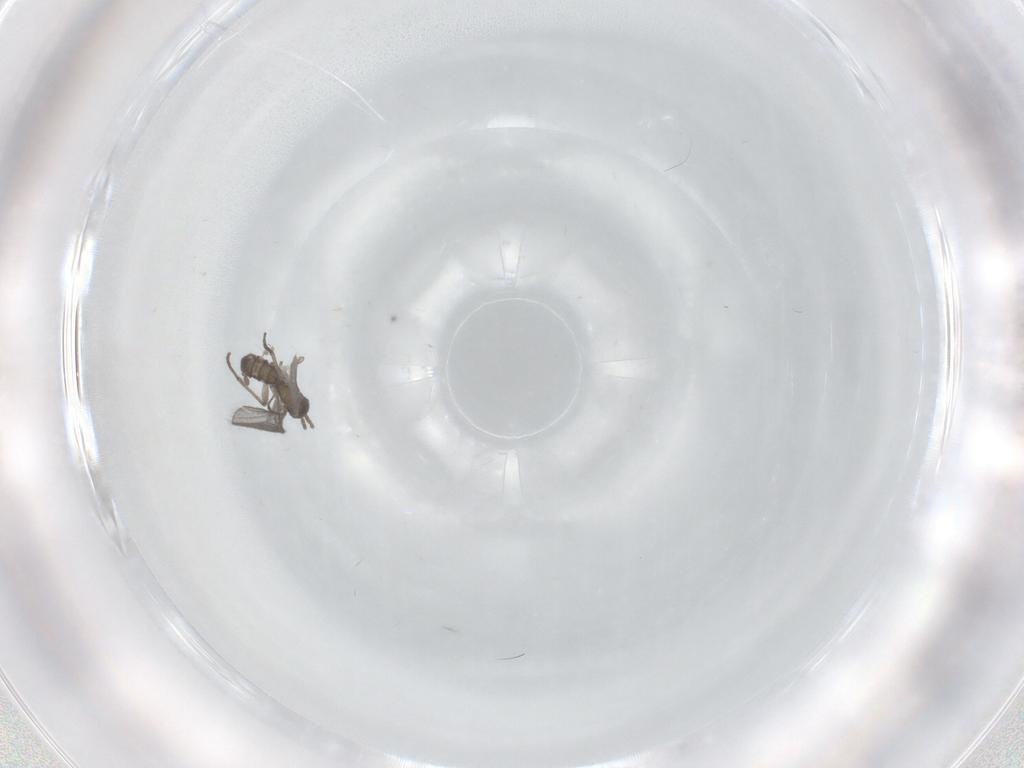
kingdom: Animalia
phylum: Arthropoda
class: Insecta
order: Diptera
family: Sciaridae
